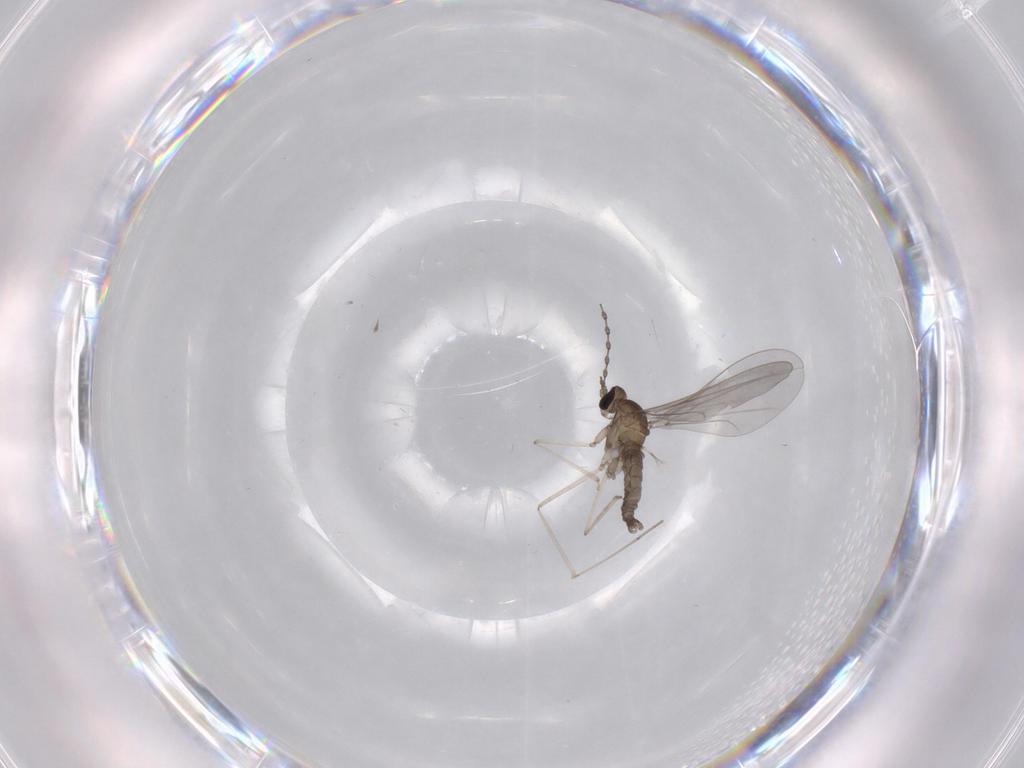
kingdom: Animalia
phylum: Arthropoda
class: Insecta
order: Diptera
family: Cecidomyiidae
